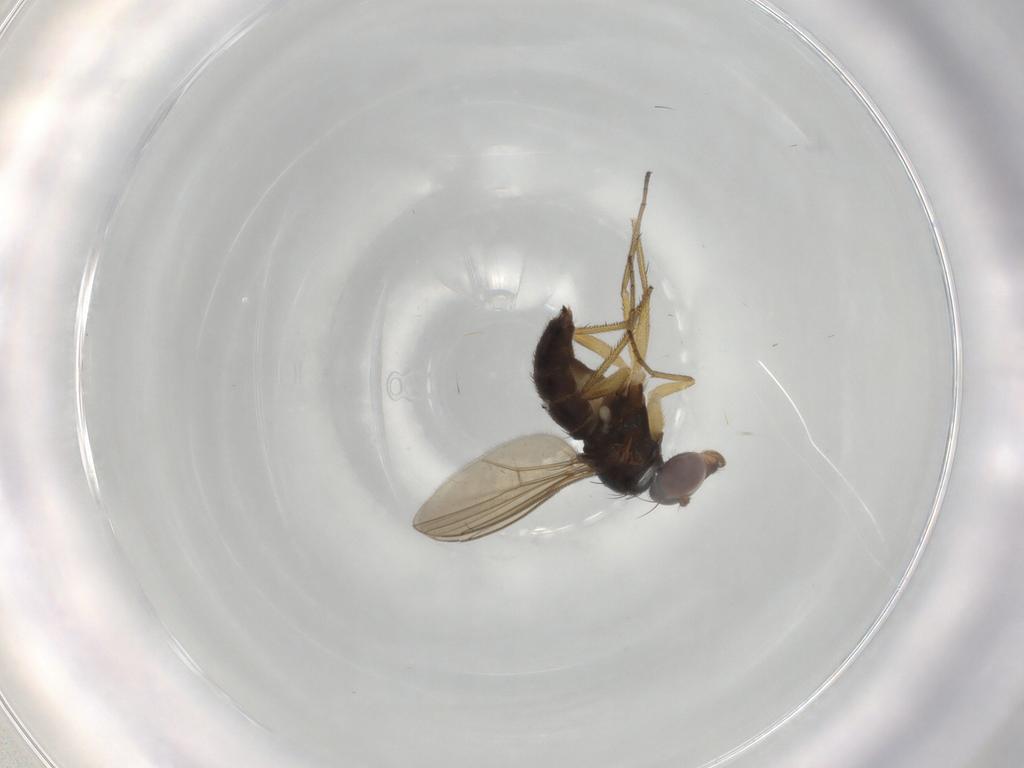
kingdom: Animalia
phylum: Arthropoda
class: Insecta
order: Diptera
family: Dolichopodidae
